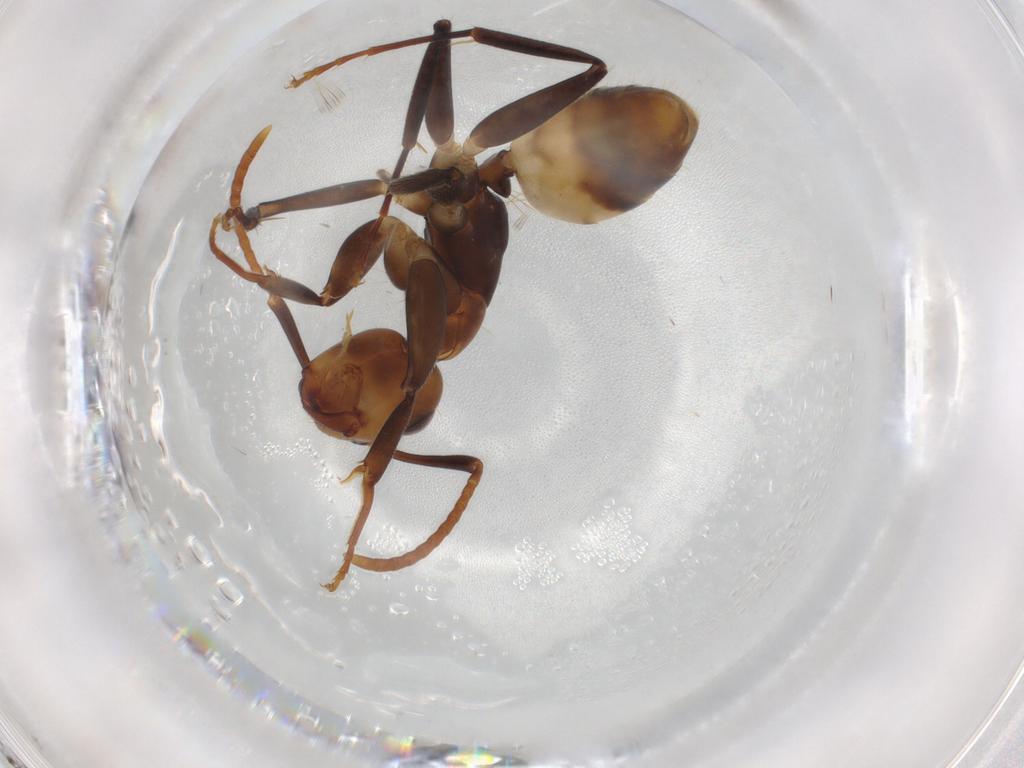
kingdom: Animalia
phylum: Arthropoda
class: Insecta
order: Hymenoptera
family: Formicidae
